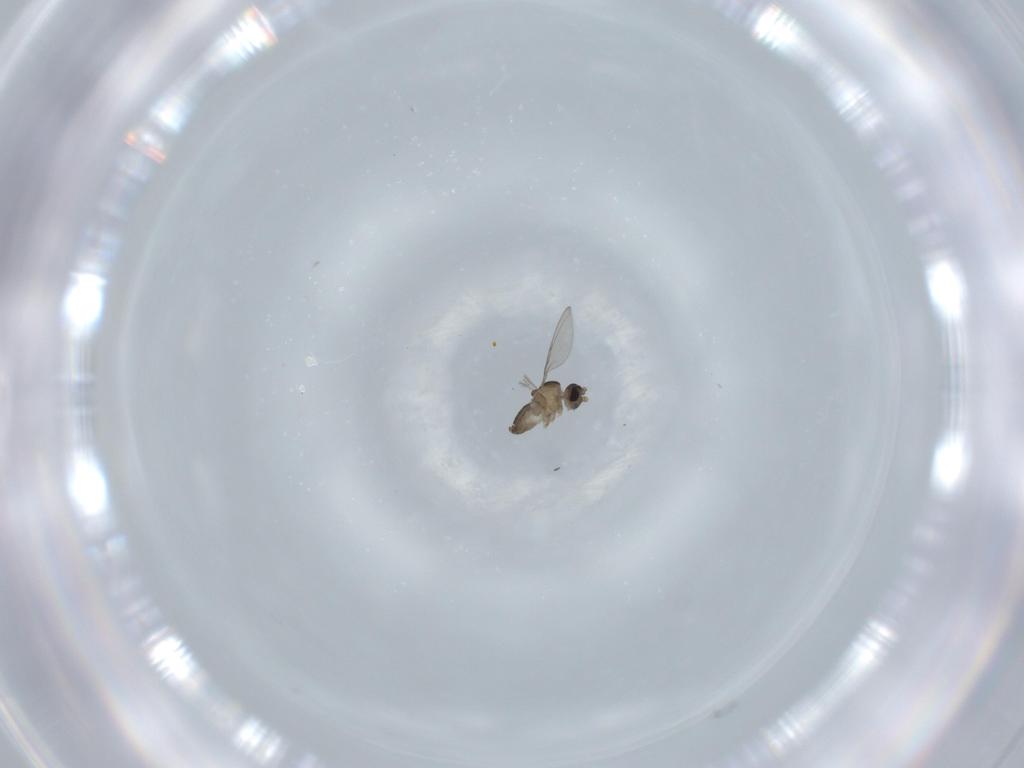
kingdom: Animalia
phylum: Arthropoda
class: Insecta
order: Diptera
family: Cecidomyiidae
